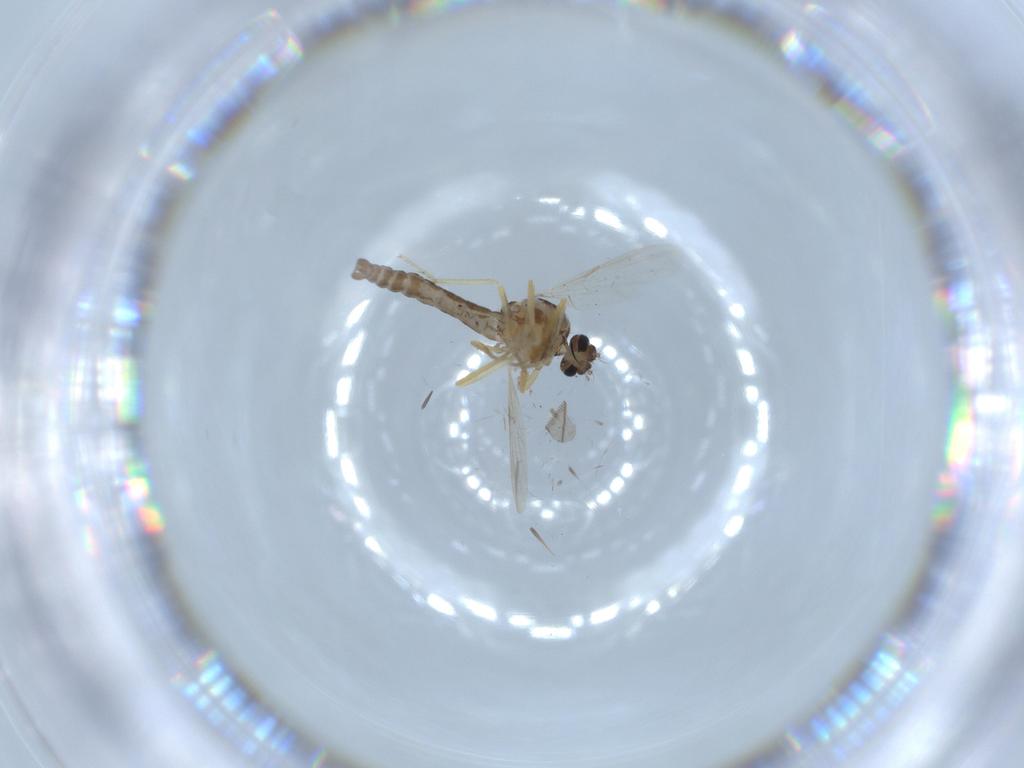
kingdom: Animalia
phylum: Arthropoda
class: Insecta
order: Diptera
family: Ceratopogonidae
